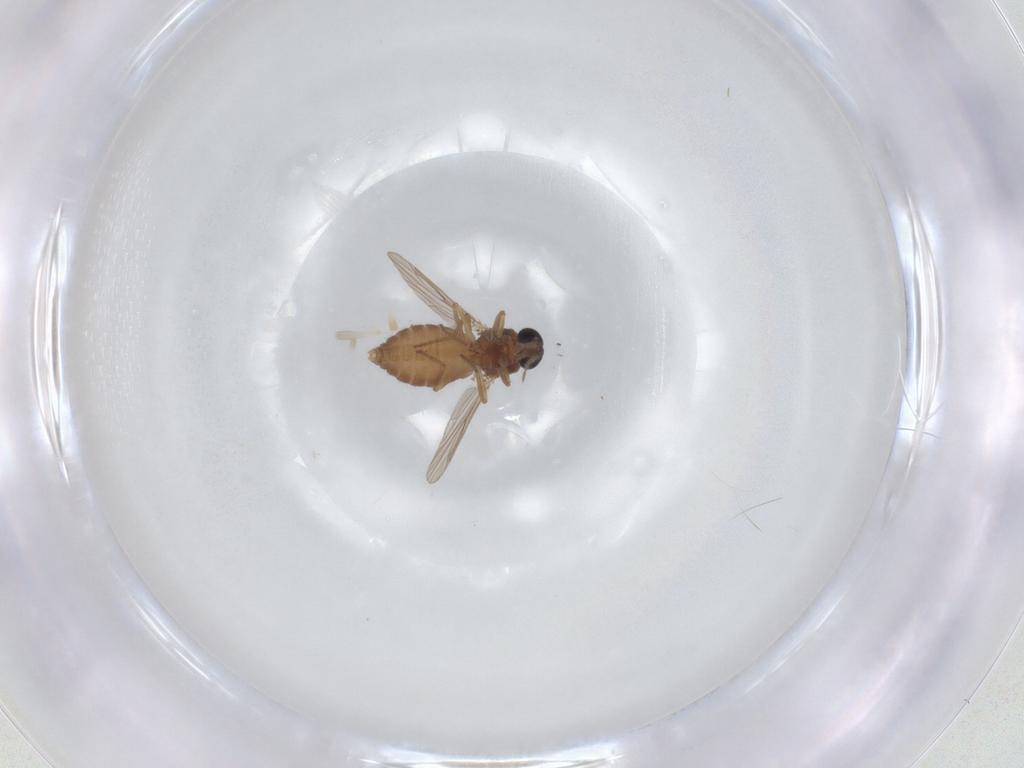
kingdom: Animalia
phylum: Arthropoda
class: Insecta
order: Diptera
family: Ceratopogonidae
